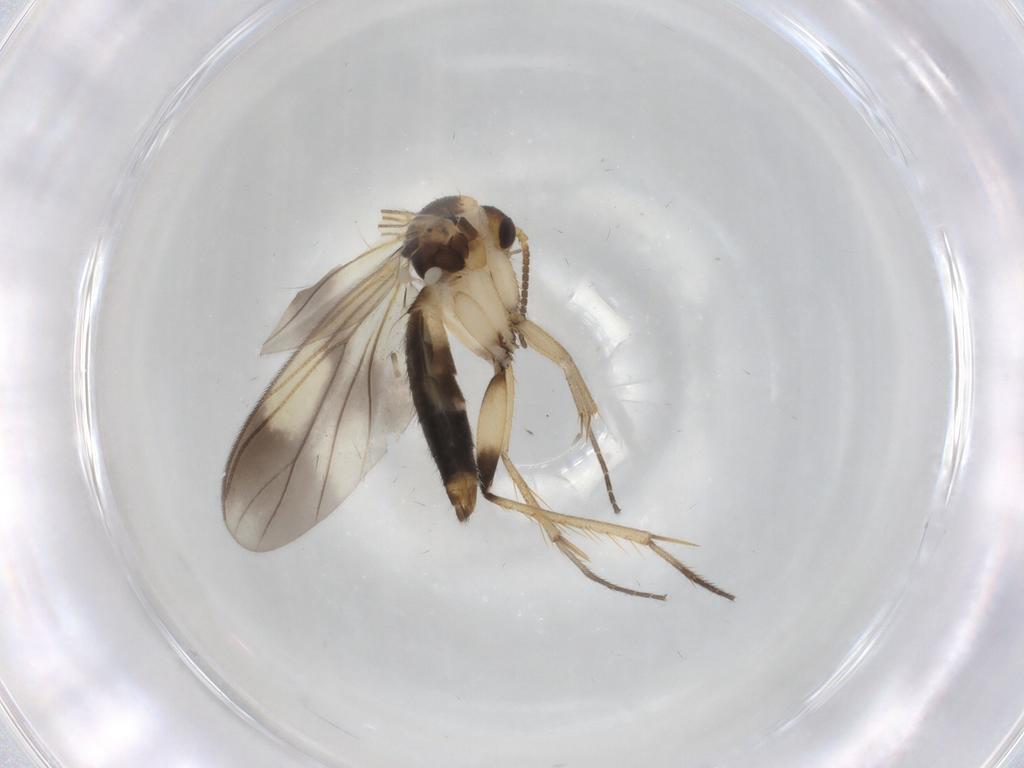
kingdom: Animalia
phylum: Arthropoda
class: Insecta
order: Diptera
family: Mycetophilidae
